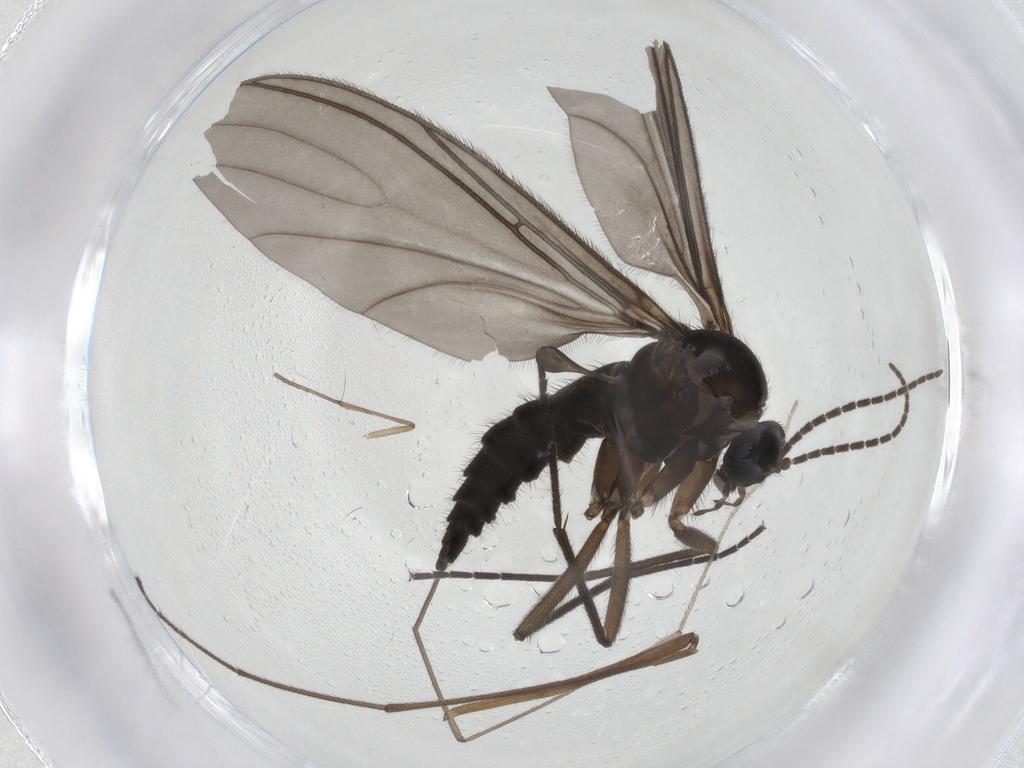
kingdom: Animalia
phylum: Arthropoda
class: Insecta
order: Diptera
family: Sciaridae
